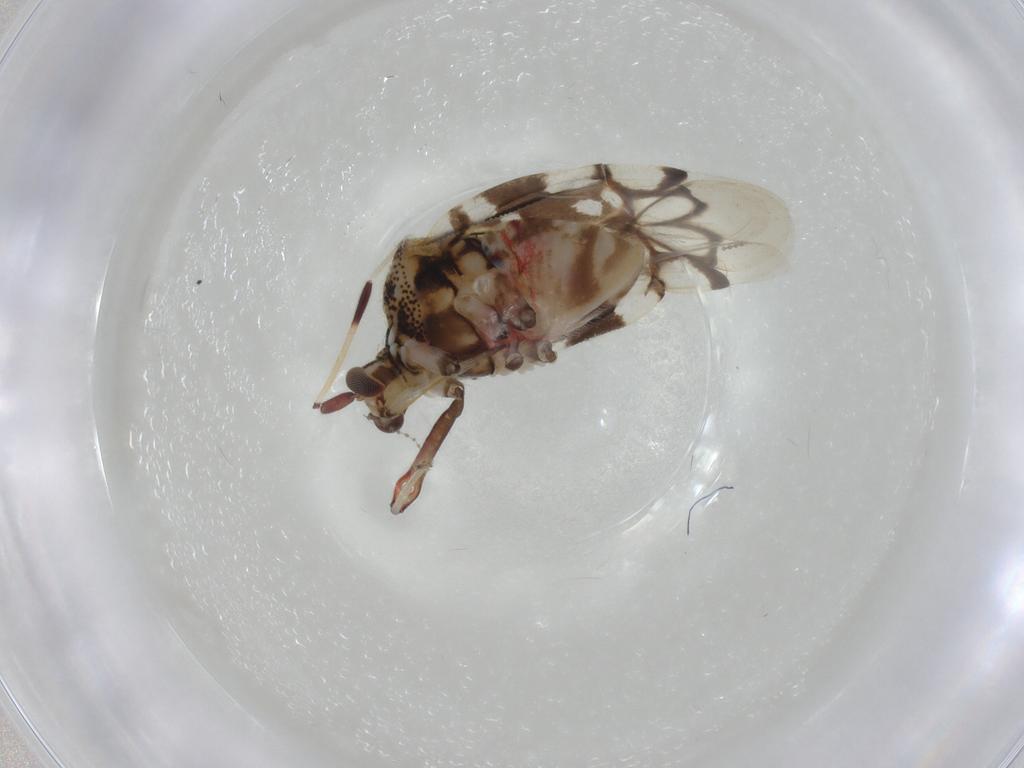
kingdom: Animalia
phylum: Arthropoda
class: Insecta
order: Hemiptera
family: Miridae
